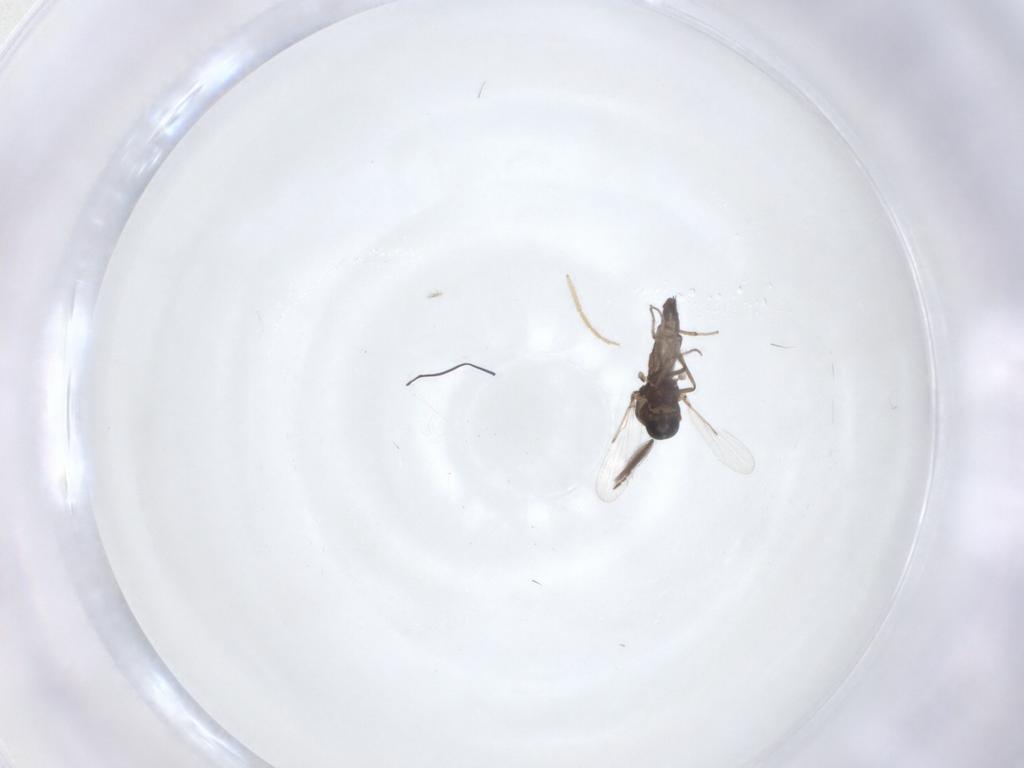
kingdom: Animalia
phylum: Arthropoda
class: Insecta
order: Diptera
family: Ceratopogonidae
